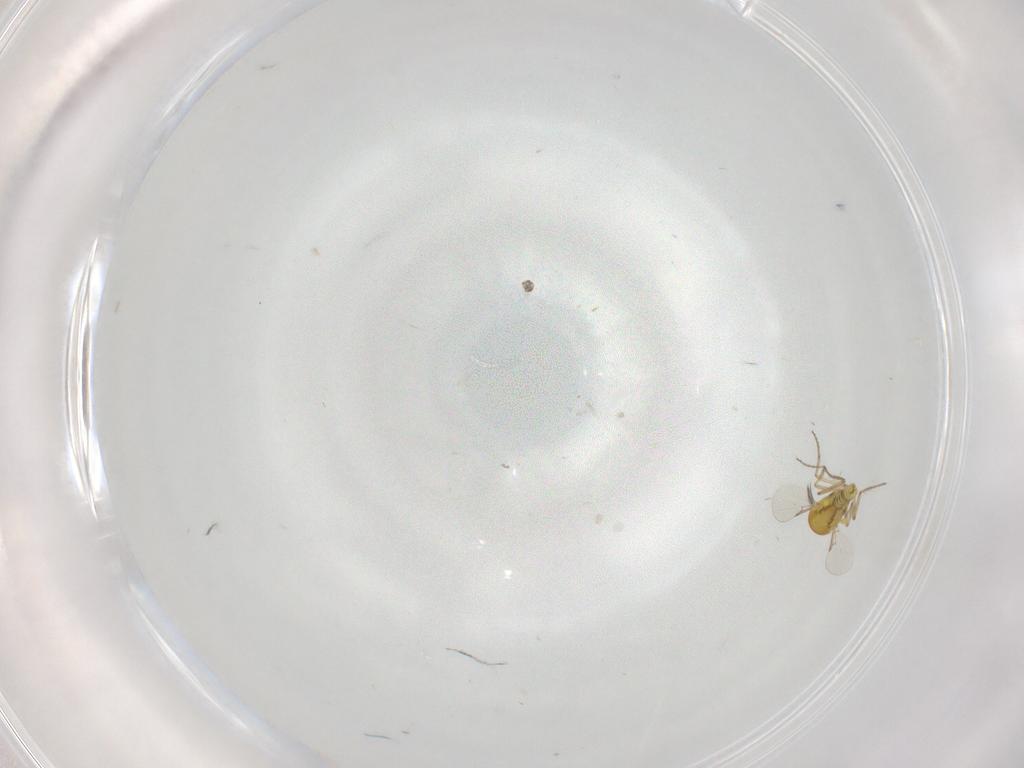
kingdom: Animalia
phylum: Arthropoda
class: Insecta
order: Diptera
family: Ceratopogonidae
